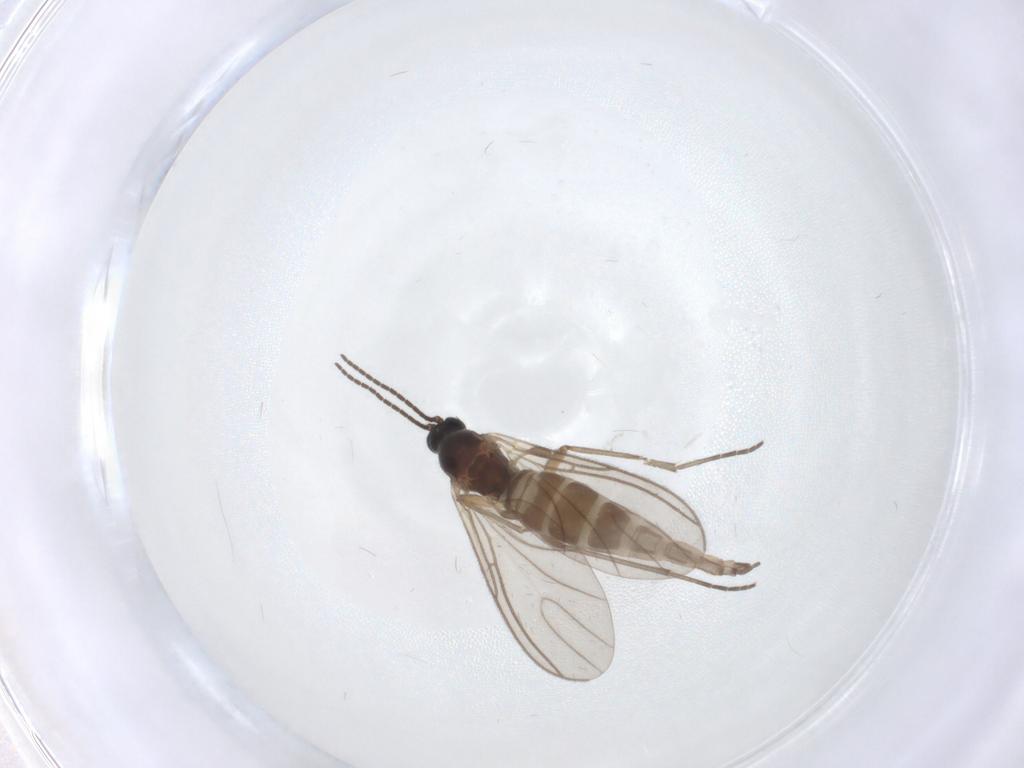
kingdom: Animalia
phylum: Arthropoda
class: Insecta
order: Diptera
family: Sciaridae
